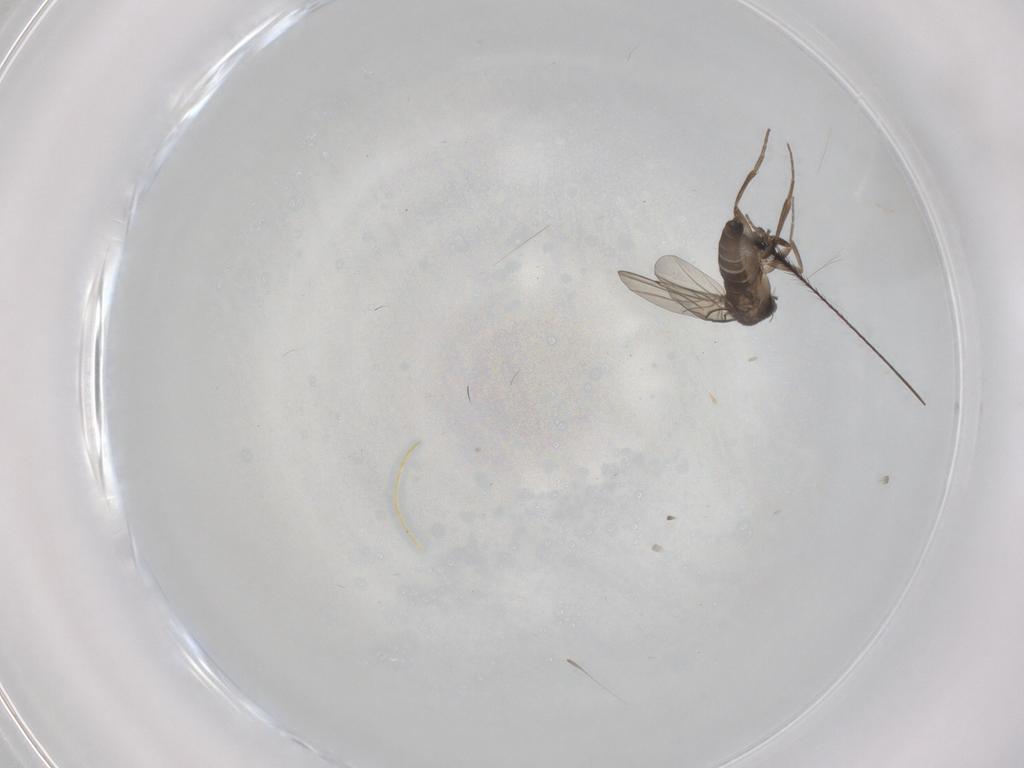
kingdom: Animalia
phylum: Arthropoda
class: Insecta
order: Diptera
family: Phoridae
